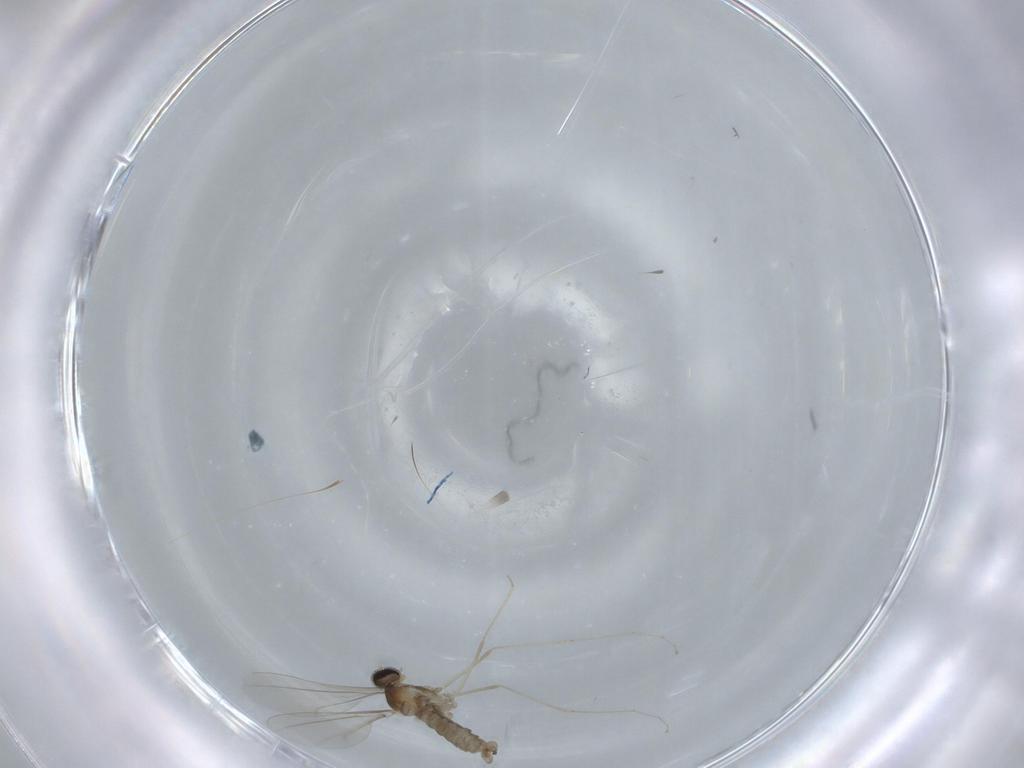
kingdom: Animalia
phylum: Arthropoda
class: Insecta
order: Diptera
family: Cecidomyiidae
